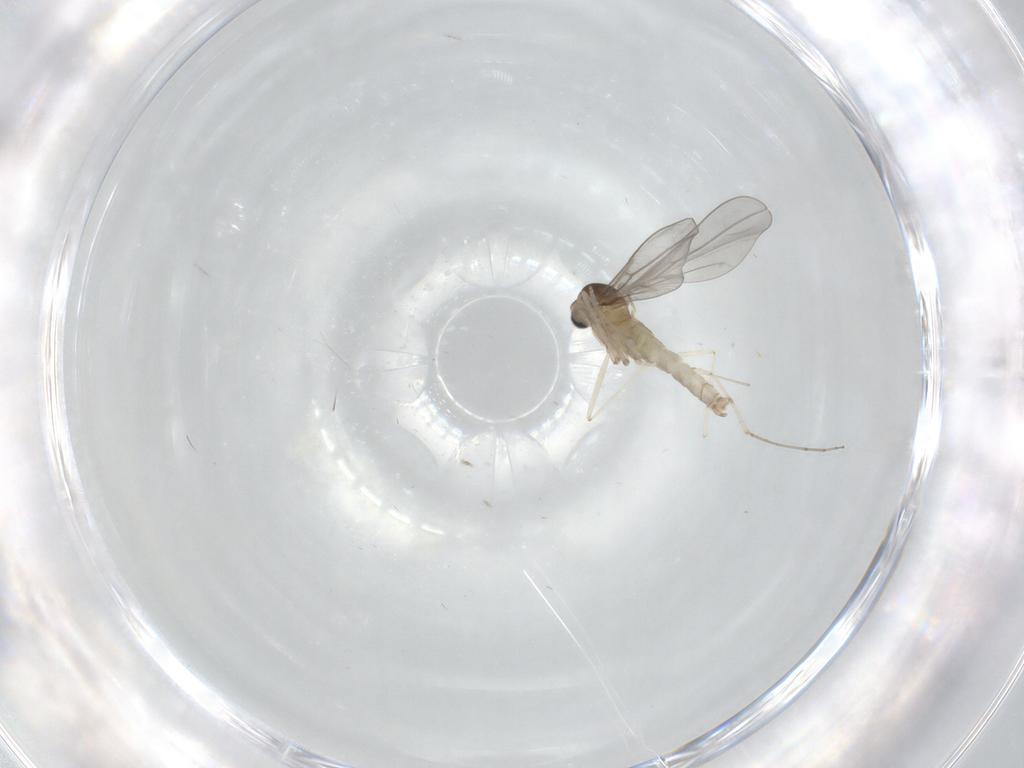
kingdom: Animalia
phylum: Arthropoda
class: Insecta
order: Diptera
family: Cecidomyiidae
